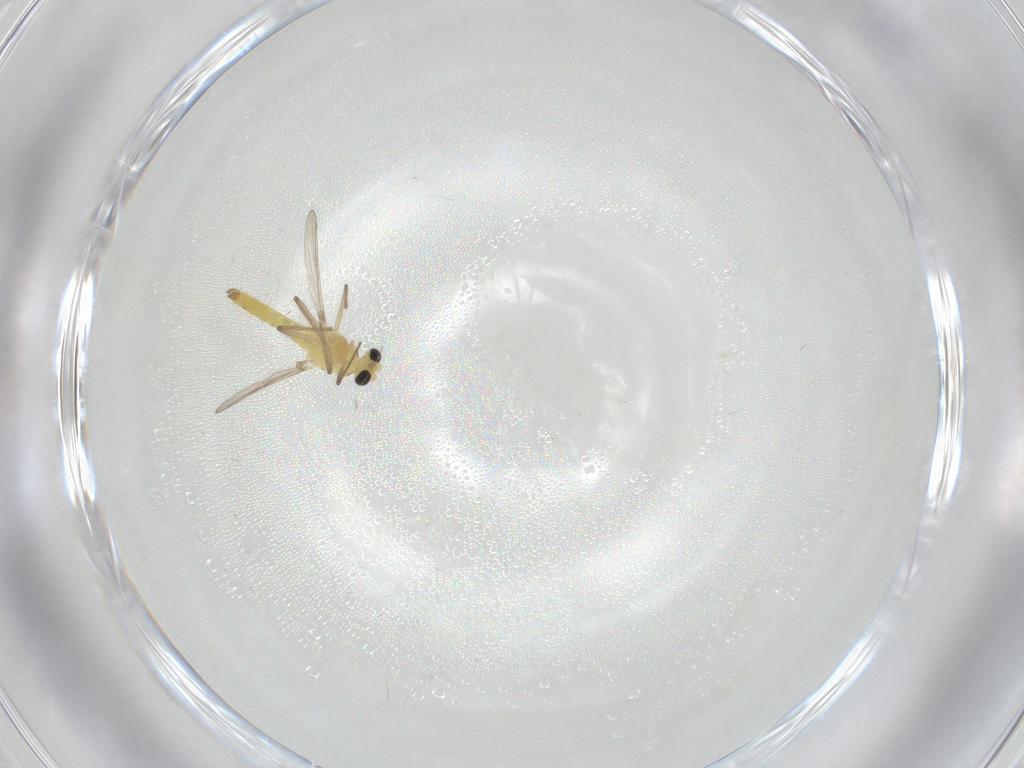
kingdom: Animalia
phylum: Arthropoda
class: Insecta
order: Diptera
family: Chironomidae
